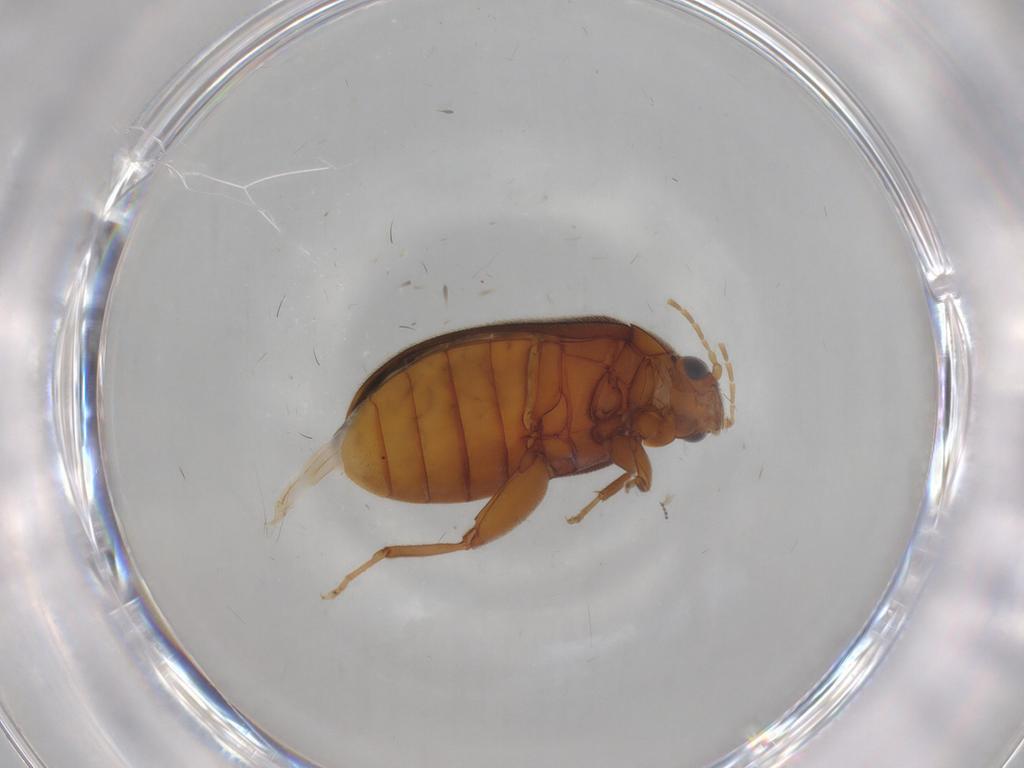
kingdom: Animalia
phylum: Arthropoda
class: Insecta
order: Coleoptera
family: Scirtidae
